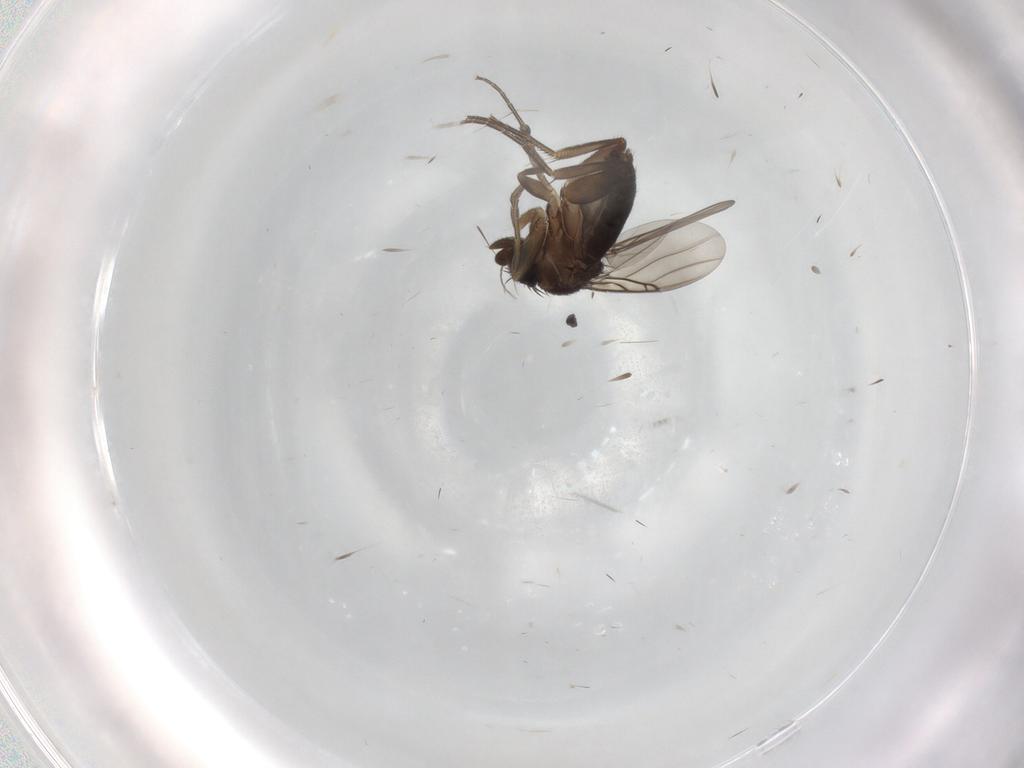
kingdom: Animalia
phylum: Arthropoda
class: Insecta
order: Diptera
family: Phoridae
